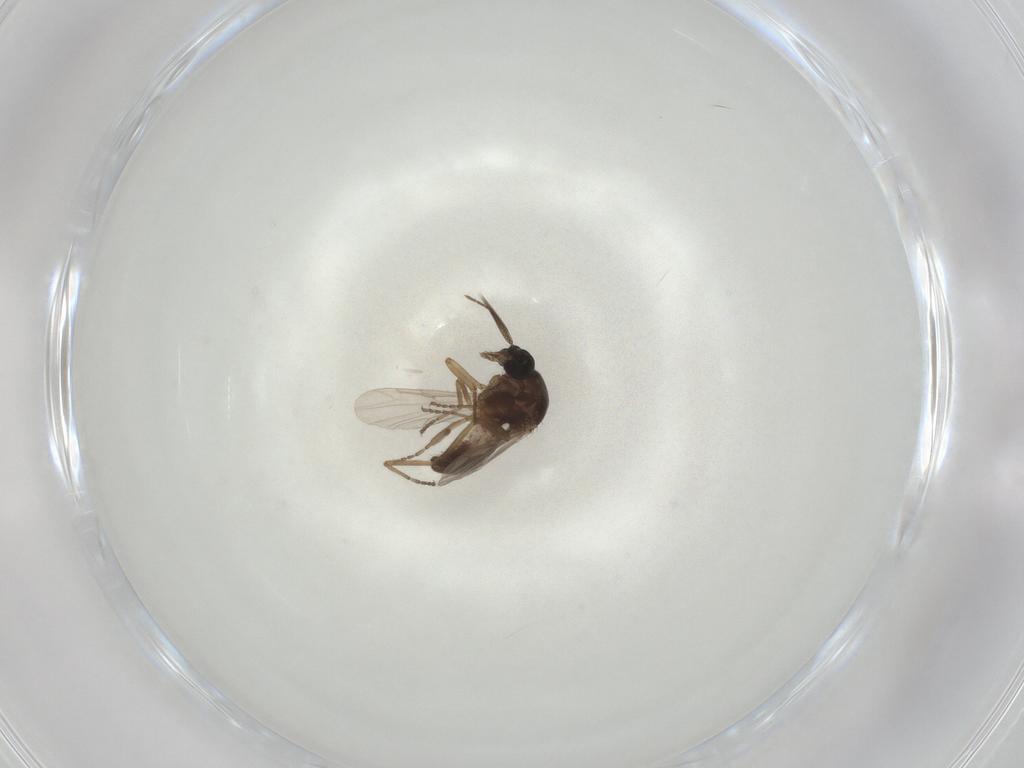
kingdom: Animalia
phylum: Arthropoda
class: Insecta
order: Diptera
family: Ceratopogonidae
